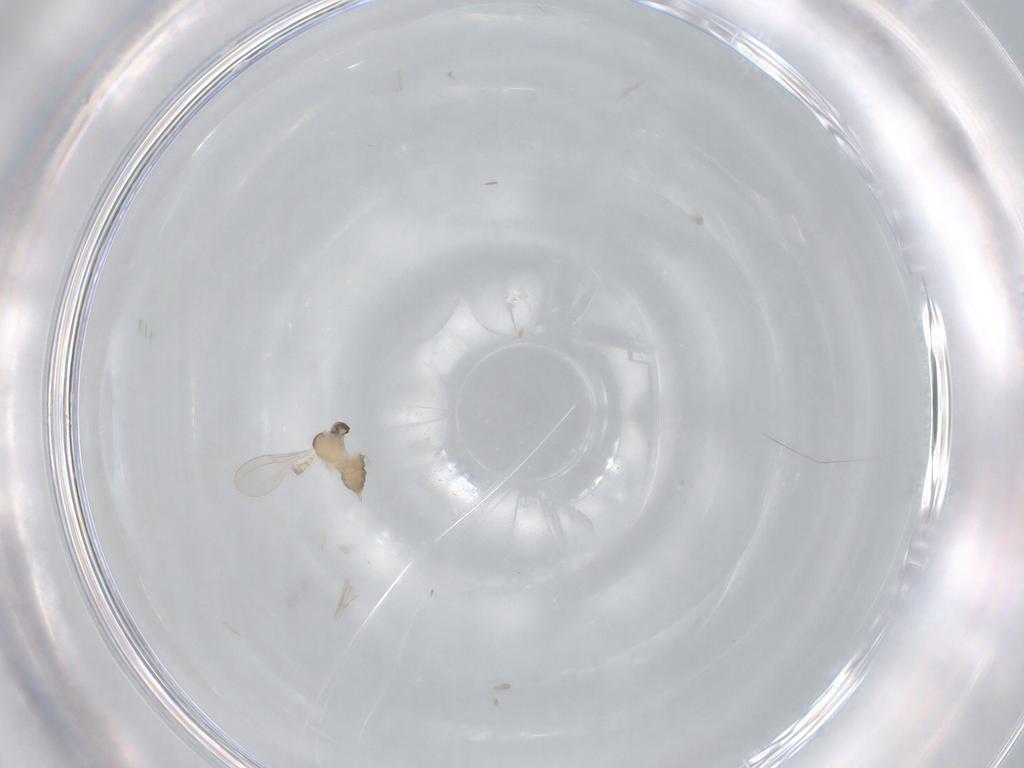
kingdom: Animalia
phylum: Arthropoda
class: Insecta
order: Diptera
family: Cecidomyiidae
